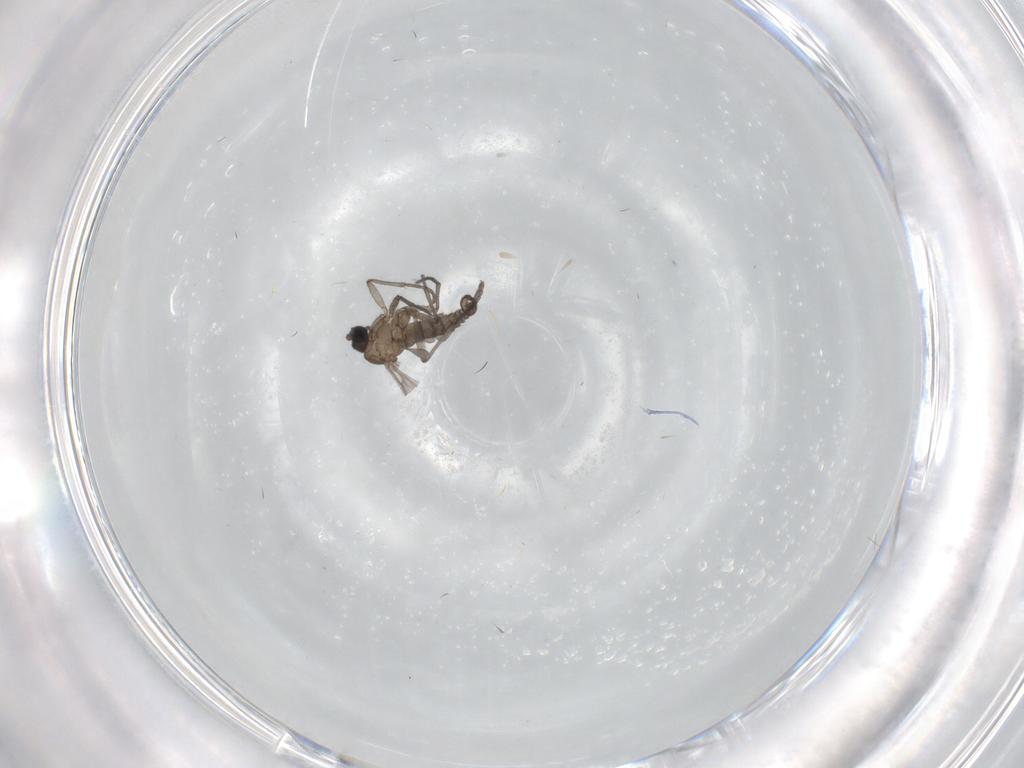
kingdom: Animalia
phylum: Arthropoda
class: Insecta
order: Diptera
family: Sciaridae
